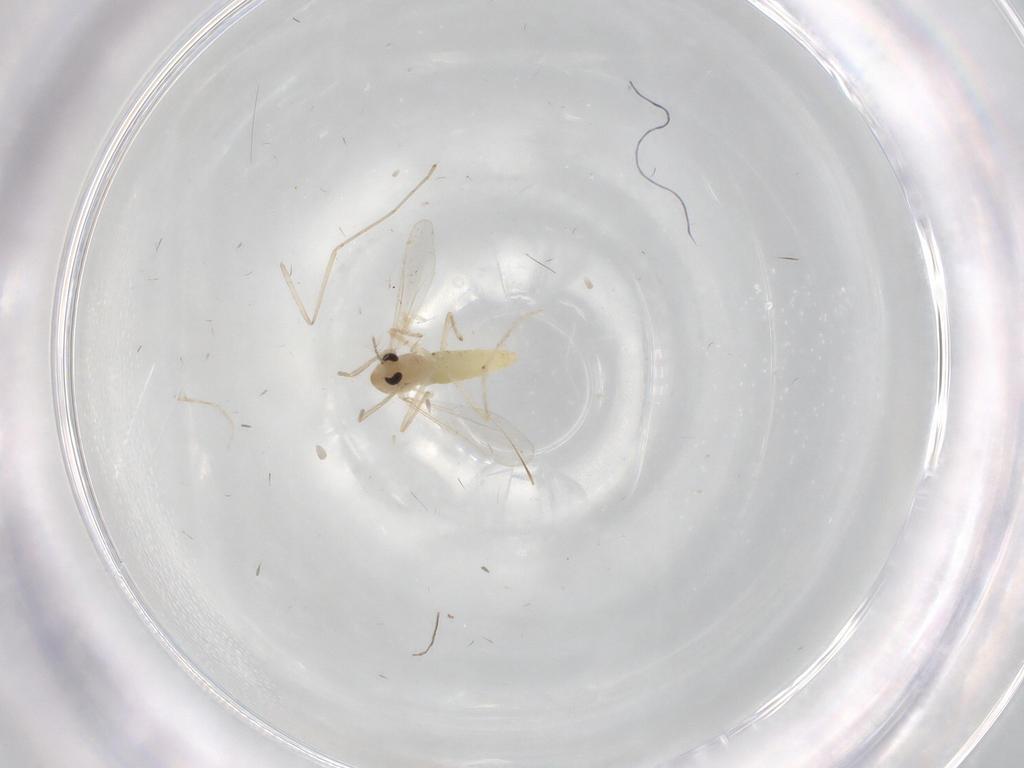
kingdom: Animalia
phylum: Arthropoda
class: Insecta
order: Diptera
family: Chironomidae
